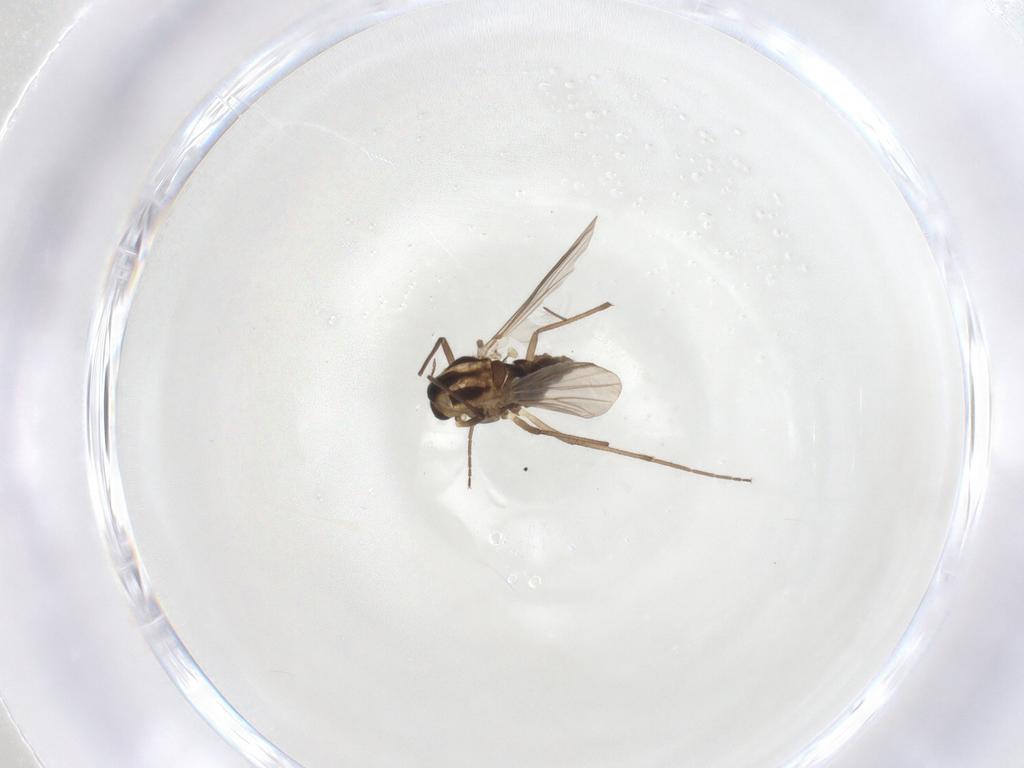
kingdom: Animalia
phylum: Arthropoda
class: Insecta
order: Diptera
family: Chironomidae
